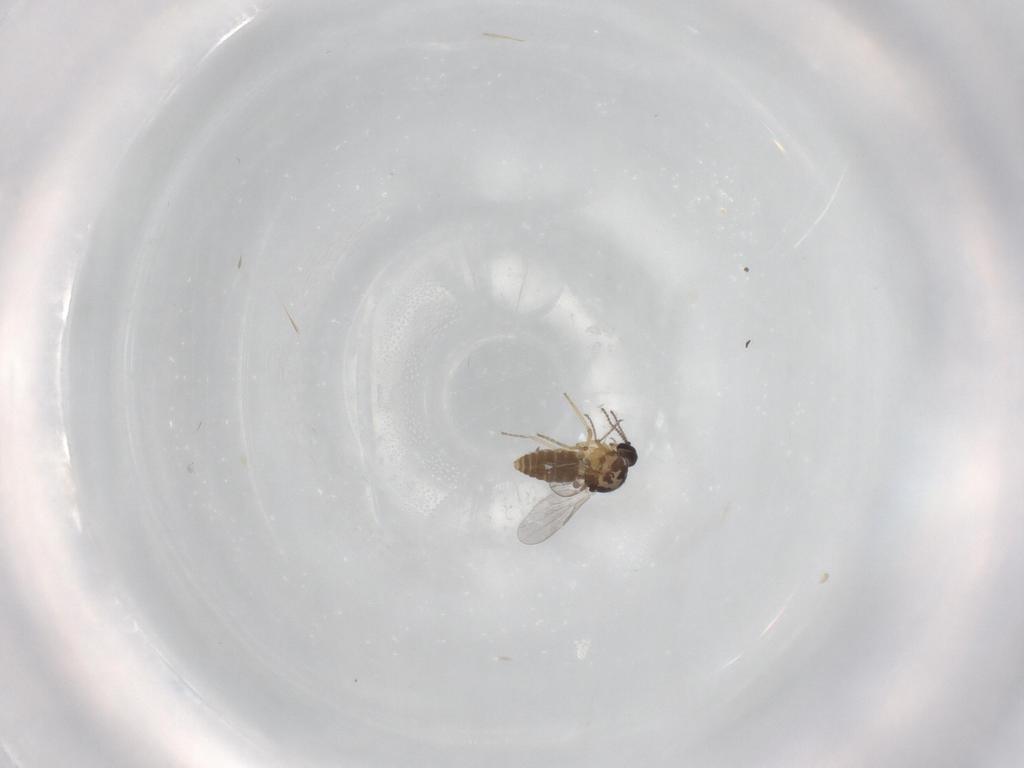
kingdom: Animalia
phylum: Arthropoda
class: Insecta
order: Diptera
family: Ceratopogonidae
